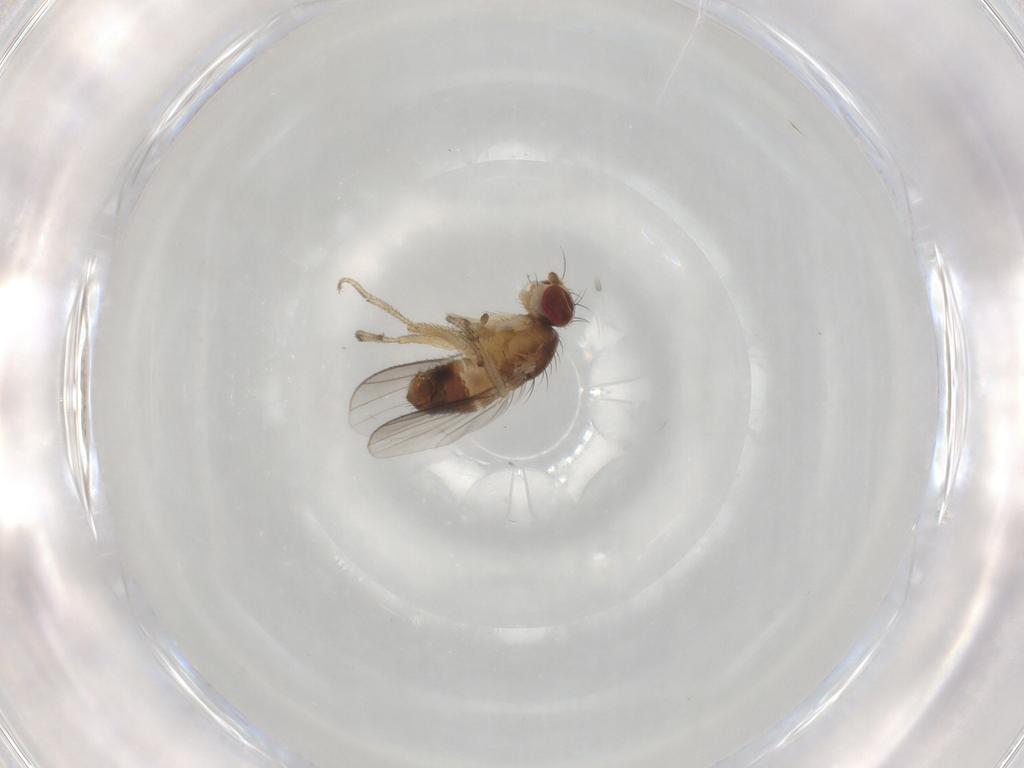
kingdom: Animalia
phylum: Arthropoda
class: Insecta
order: Diptera
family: Heleomyzidae
